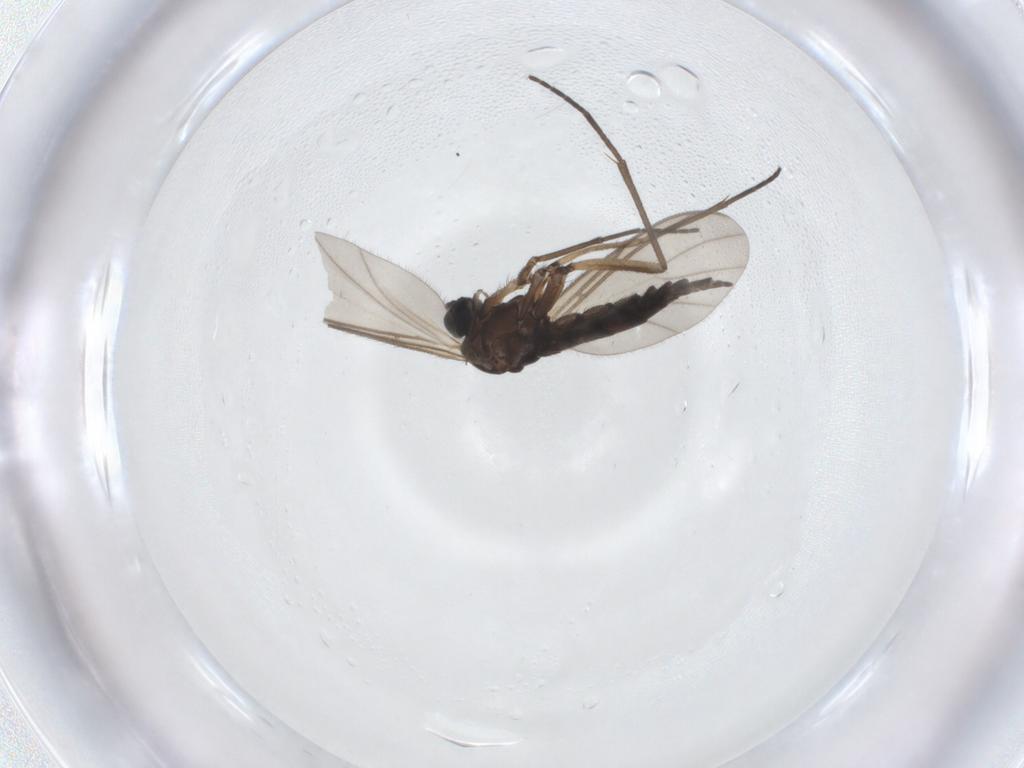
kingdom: Animalia
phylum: Arthropoda
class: Insecta
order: Diptera
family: Sciaridae
